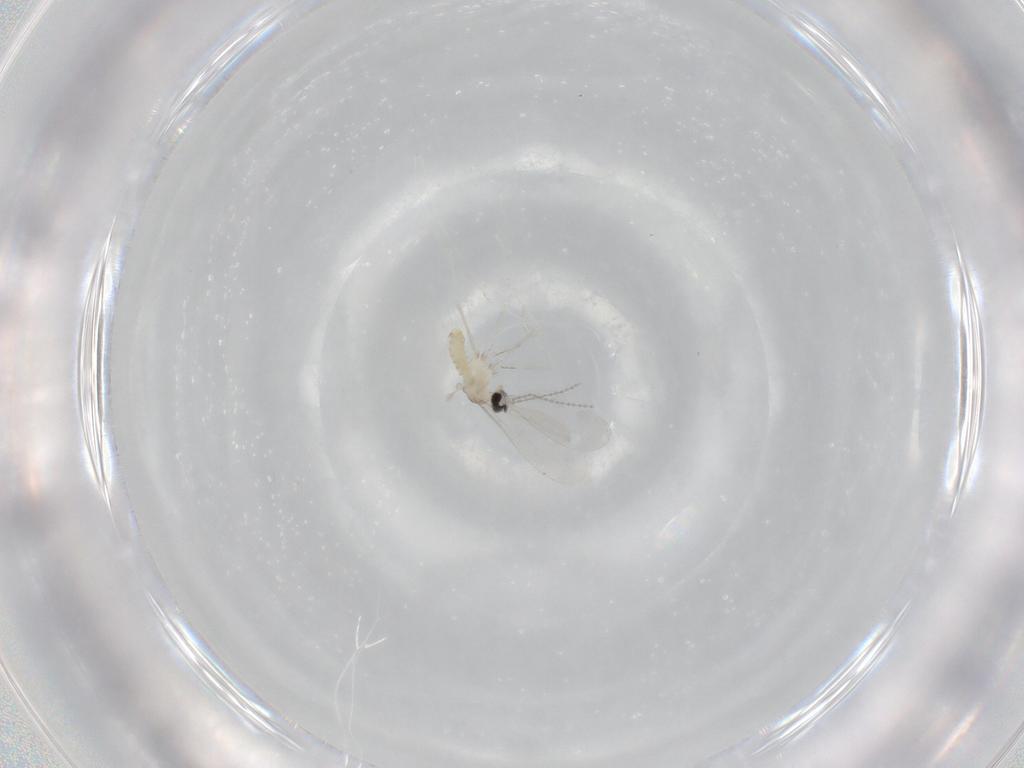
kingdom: Animalia
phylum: Arthropoda
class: Insecta
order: Diptera
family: Cecidomyiidae
